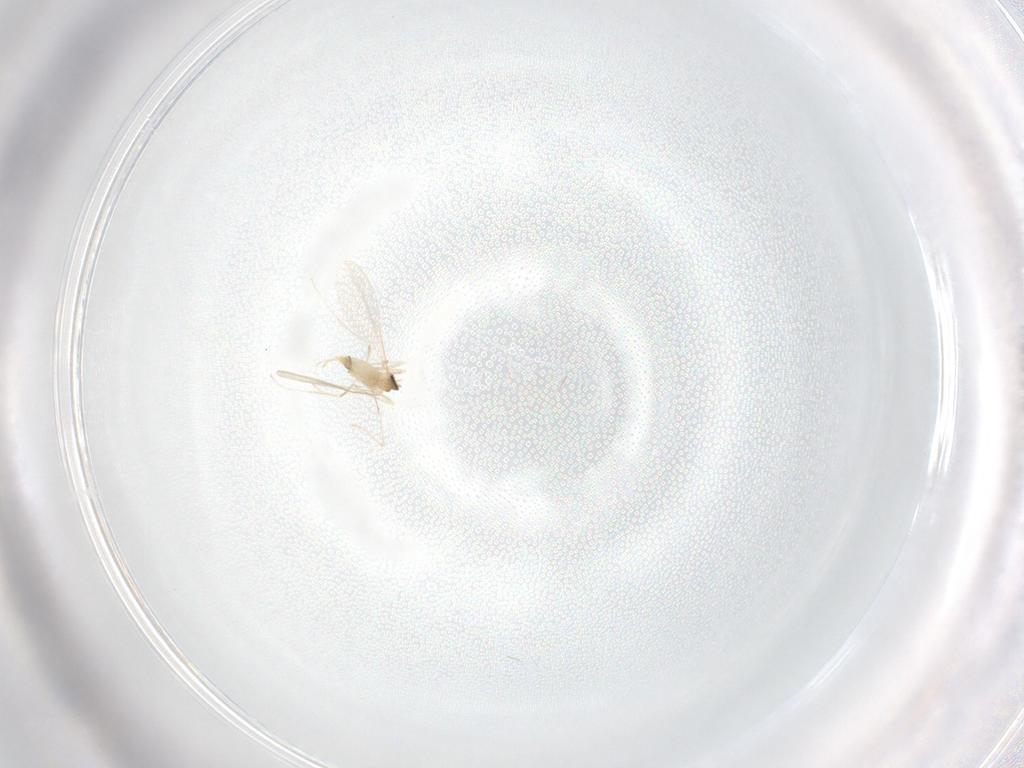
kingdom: Animalia
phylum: Arthropoda
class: Insecta
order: Diptera
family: Cecidomyiidae
